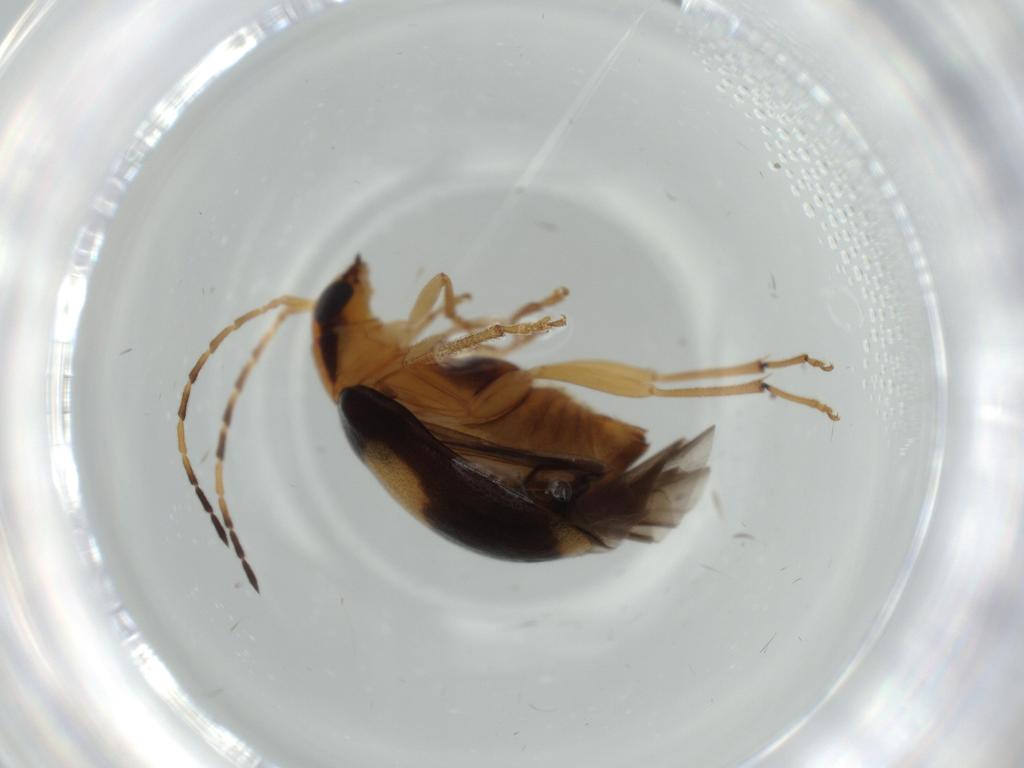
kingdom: Animalia
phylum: Arthropoda
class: Insecta
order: Coleoptera
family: Chrysomelidae
